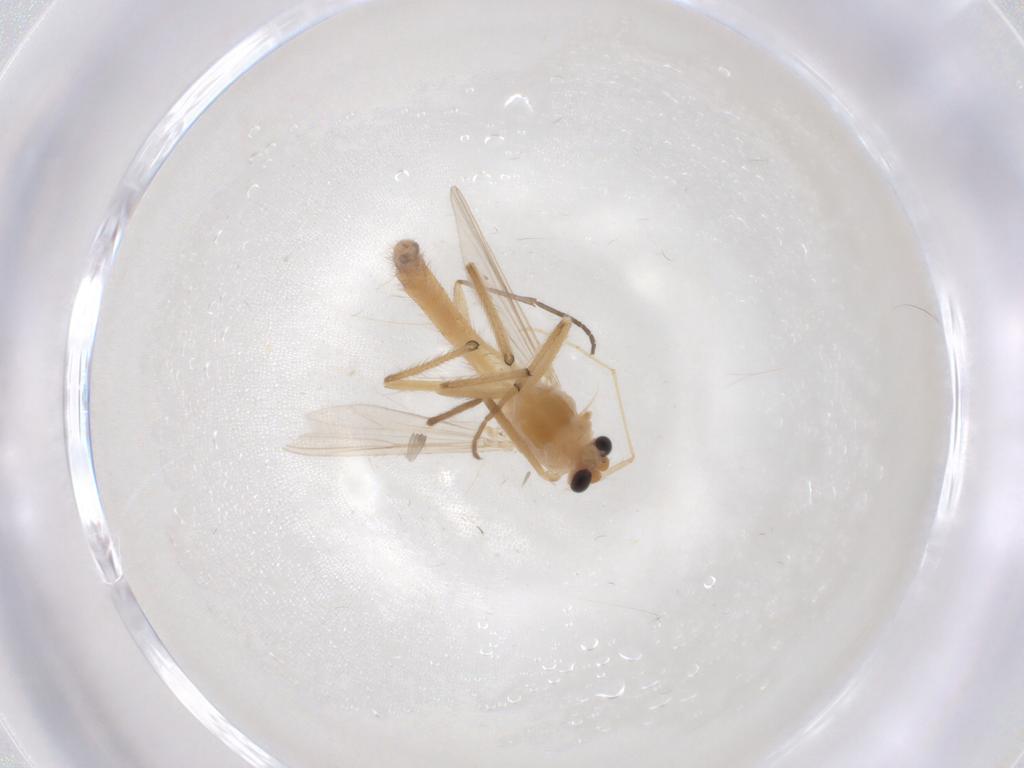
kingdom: Animalia
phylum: Arthropoda
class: Insecta
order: Diptera
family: Chironomidae
